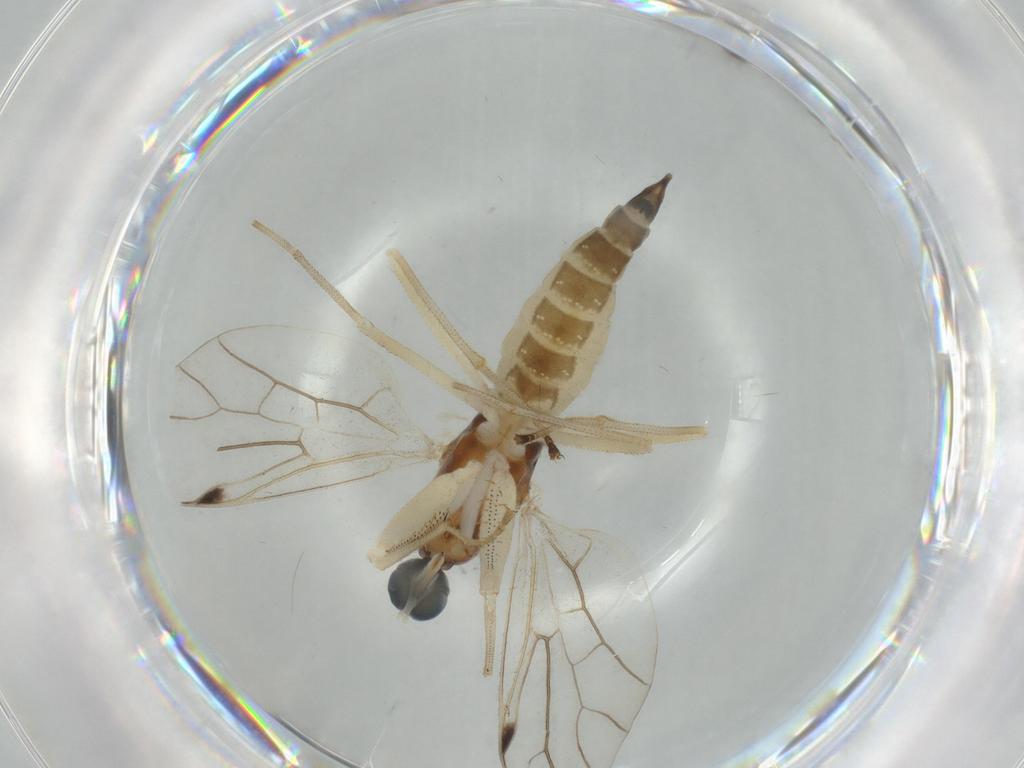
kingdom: Animalia
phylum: Arthropoda
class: Insecta
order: Diptera
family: Empididae
